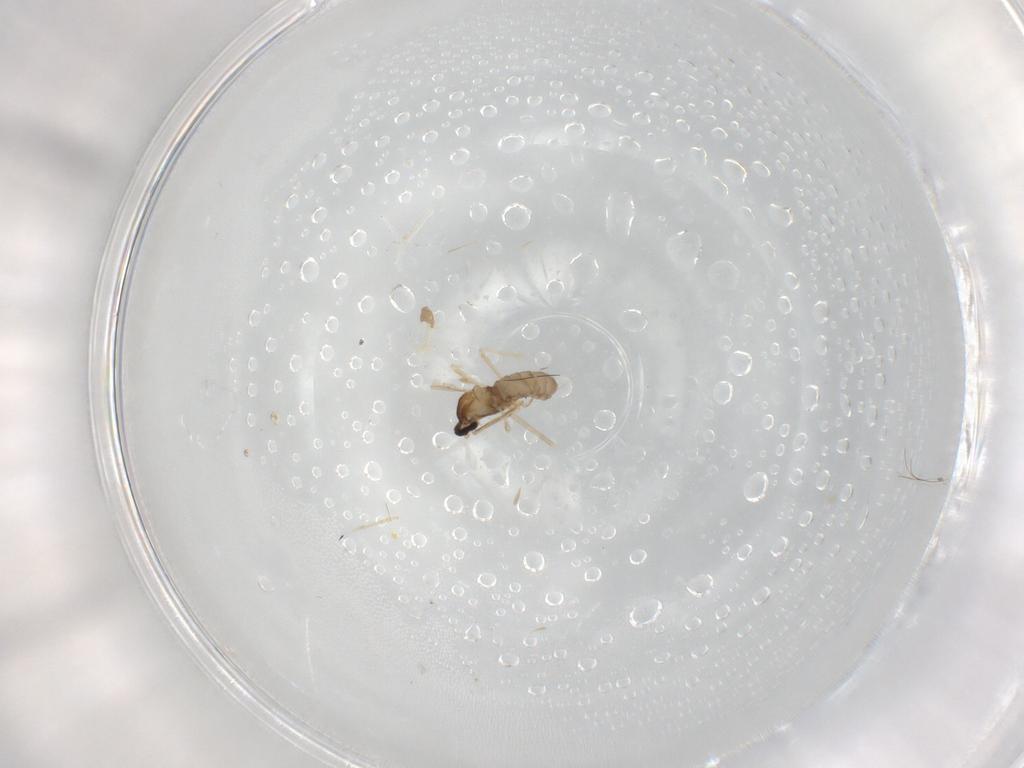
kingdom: Animalia
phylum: Arthropoda
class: Insecta
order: Diptera
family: Cecidomyiidae
